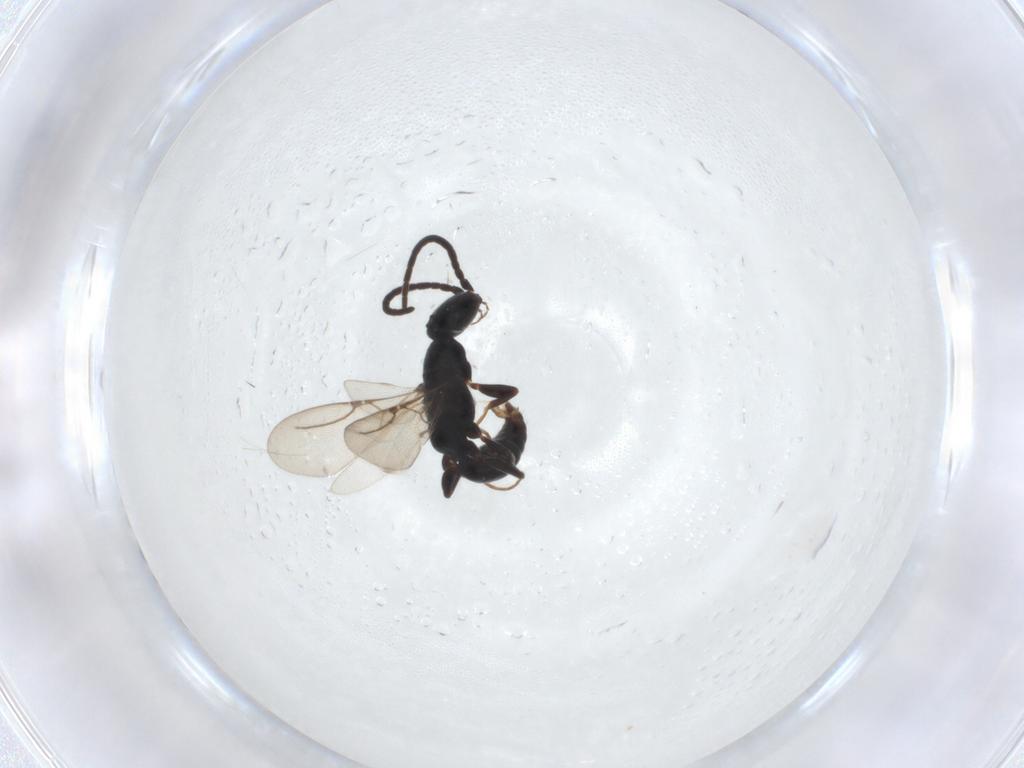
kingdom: Animalia
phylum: Arthropoda
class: Insecta
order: Hymenoptera
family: Bethylidae
